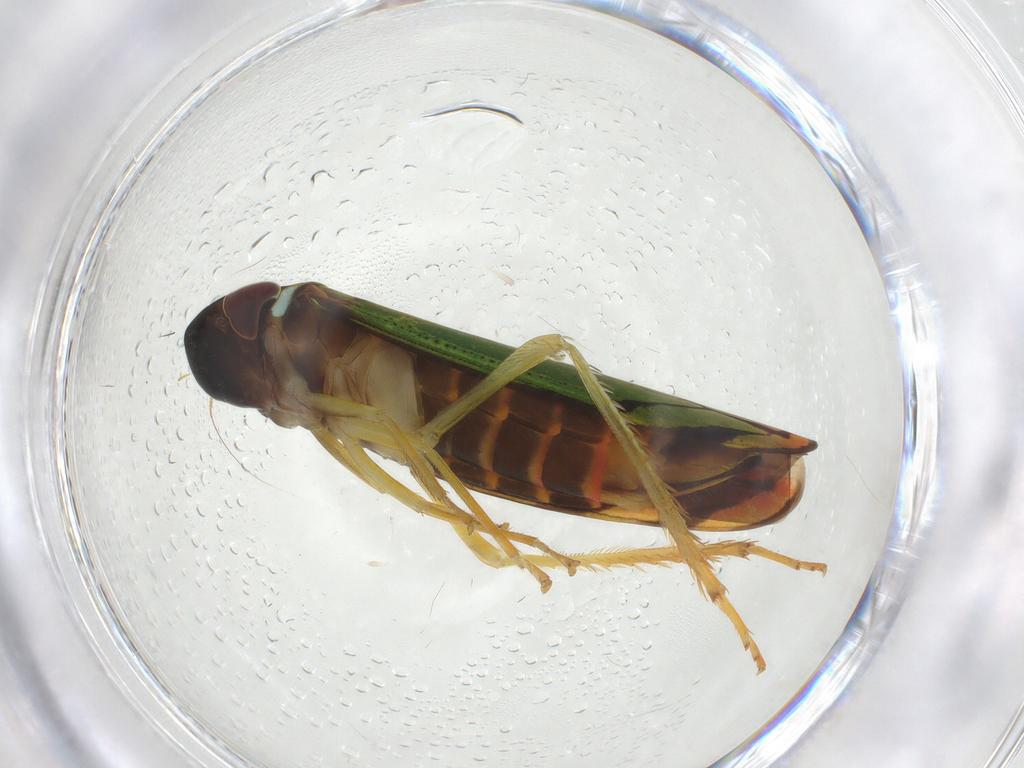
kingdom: Animalia
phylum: Arthropoda
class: Insecta
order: Hemiptera
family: Cicadellidae
